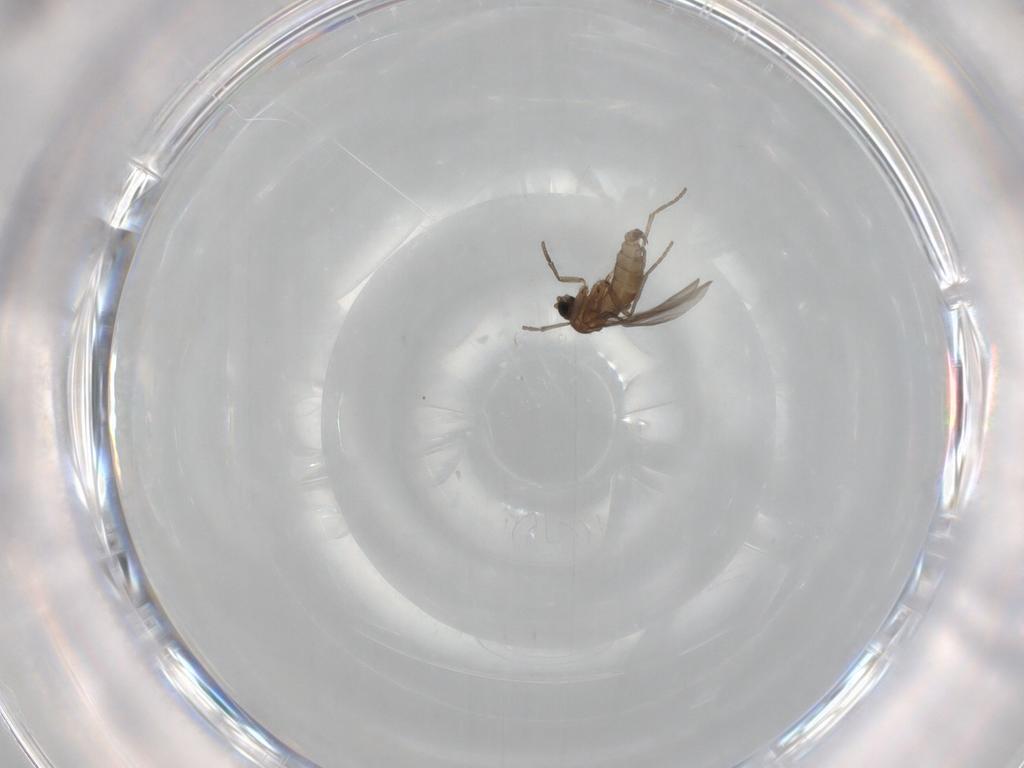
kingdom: Animalia
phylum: Arthropoda
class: Insecta
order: Diptera
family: Sciaridae
